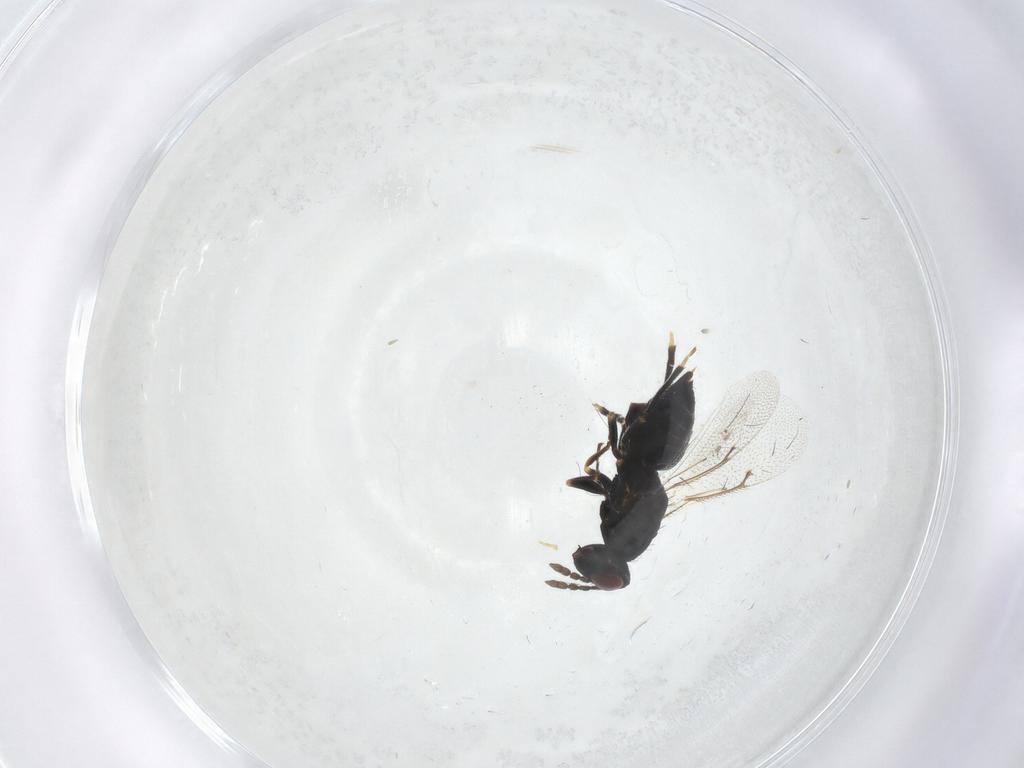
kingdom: Animalia
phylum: Arthropoda
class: Insecta
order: Hymenoptera
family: Eulophidae
